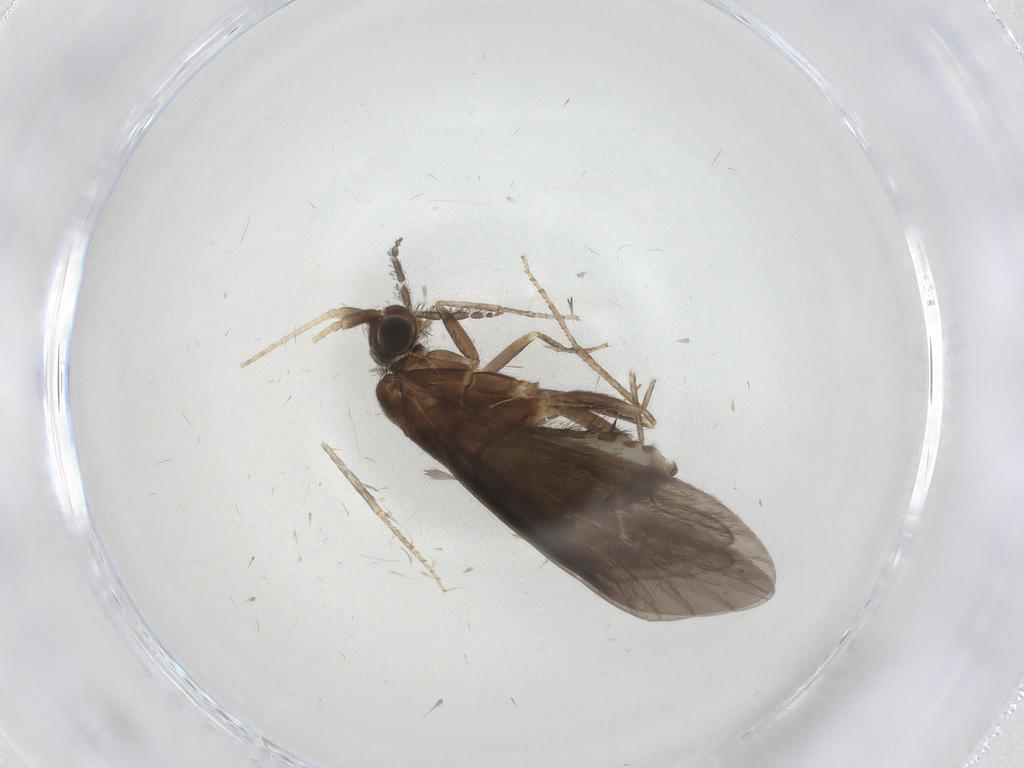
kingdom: Animalia
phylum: Arthropoda
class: Insecta
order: Trichoptera
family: Helicopsychidae
